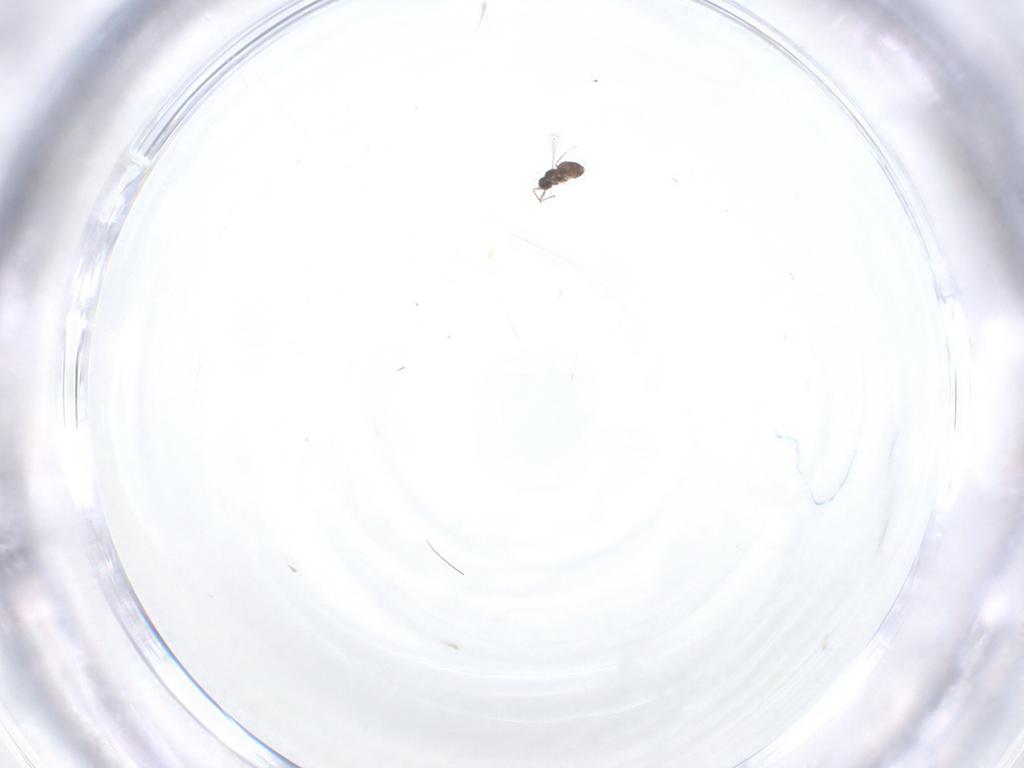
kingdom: Animalia
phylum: Arthropoda
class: Insecta
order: Hymenoptera
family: Mymaridae
